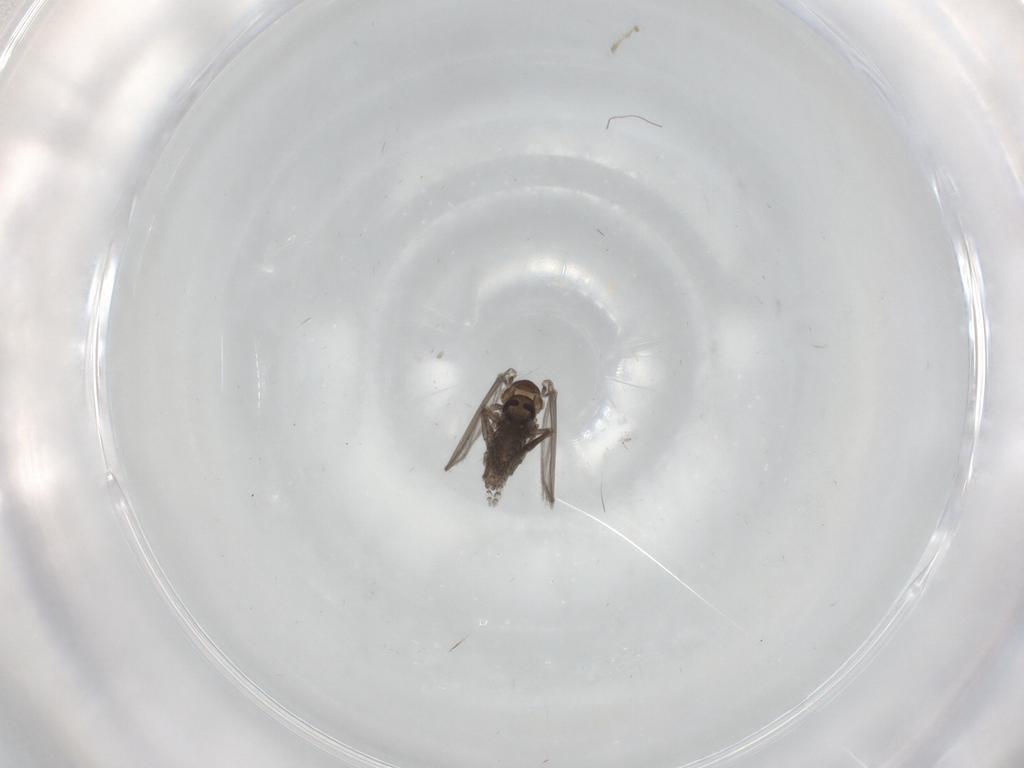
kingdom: Animalia
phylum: Arthropoda
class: Insecta
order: Diptera
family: Psychodidae
